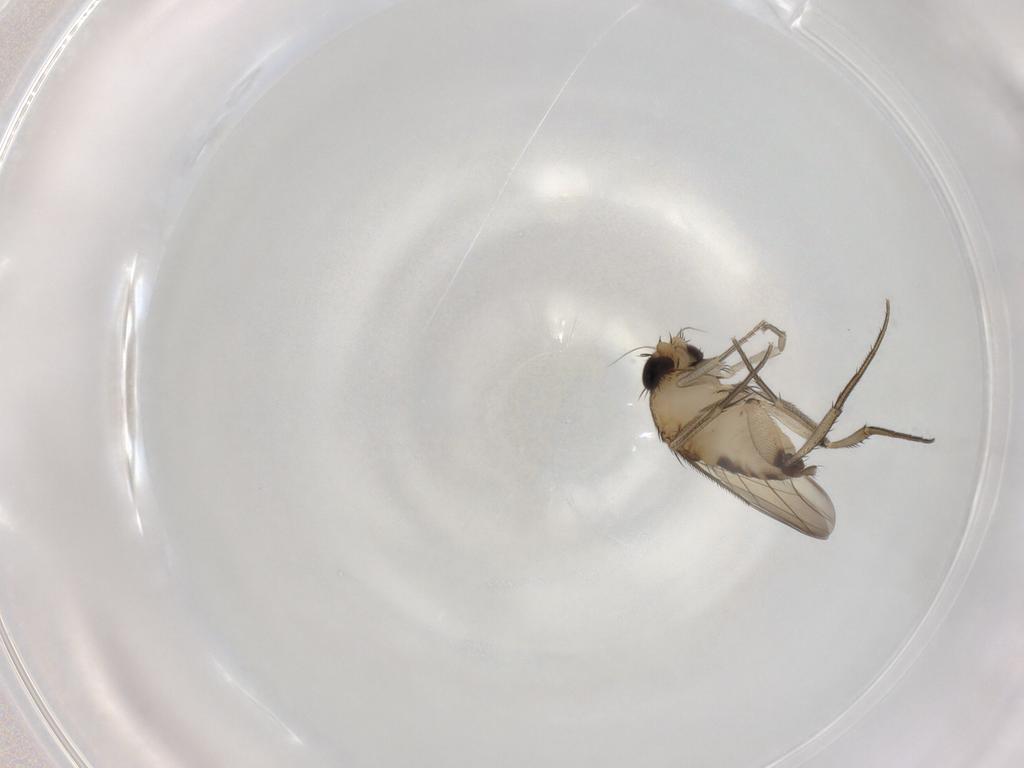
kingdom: Animalia
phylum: Arthropoda
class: Insecta
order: Diptera
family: Phoridae
